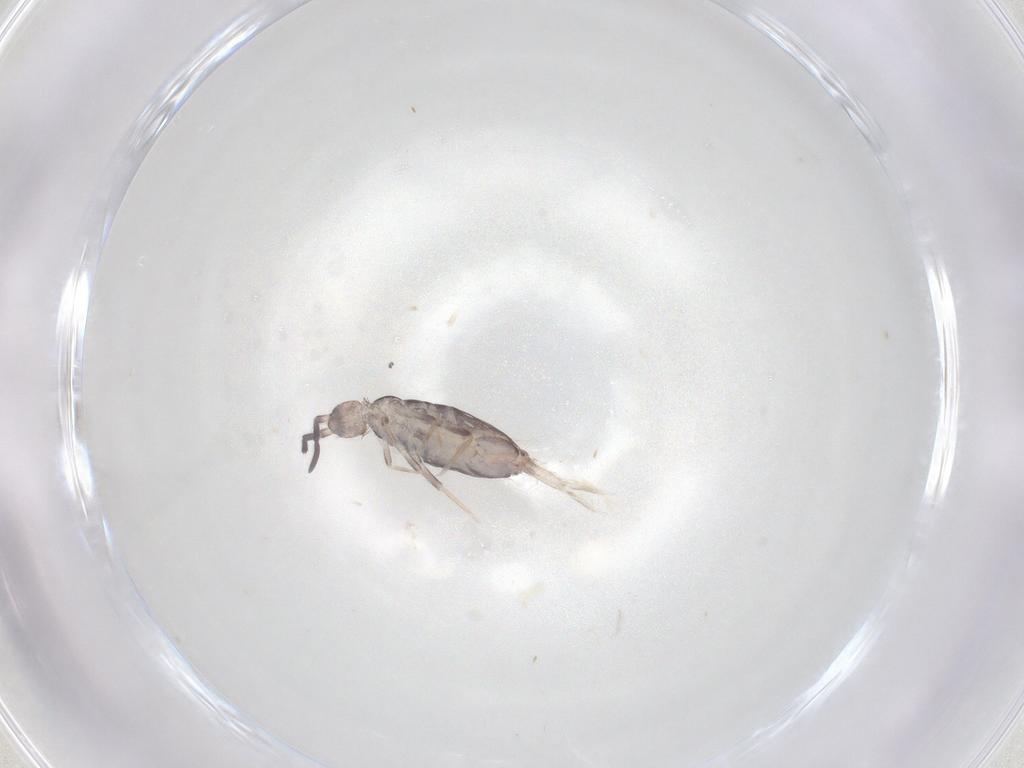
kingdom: Animalia
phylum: Arthropoda
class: Collembola
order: Poduromorpha
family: Hypogastruridae
